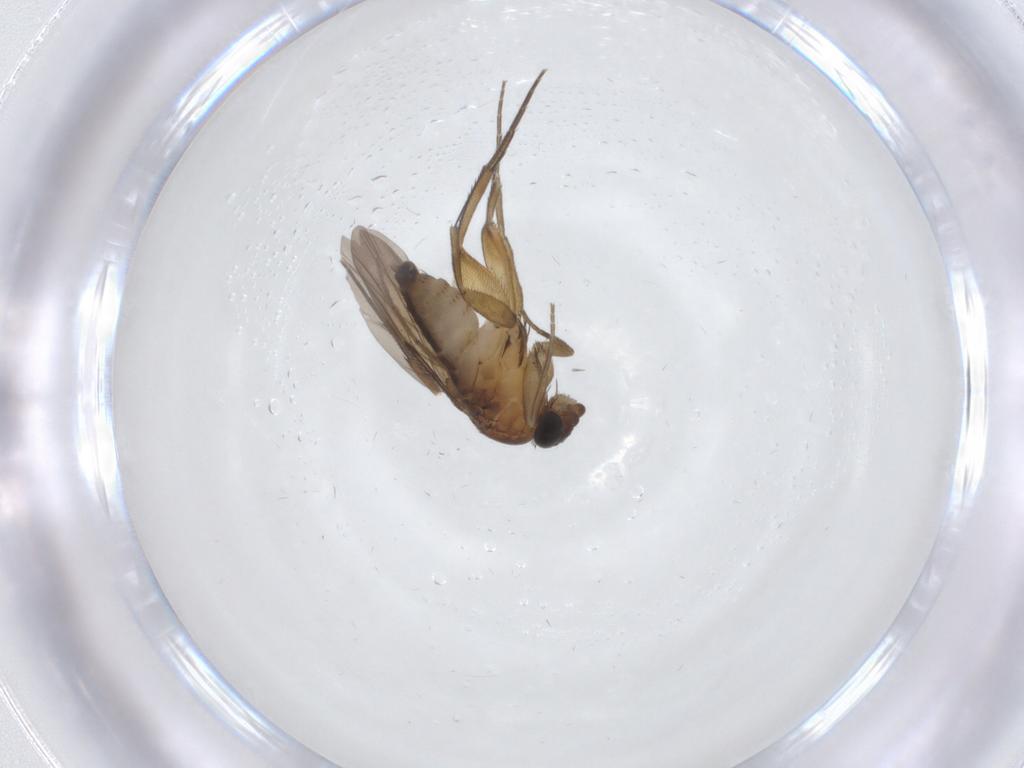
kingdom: Animalia
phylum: Arthropoda
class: Insecta
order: Diptera
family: Phoridae
